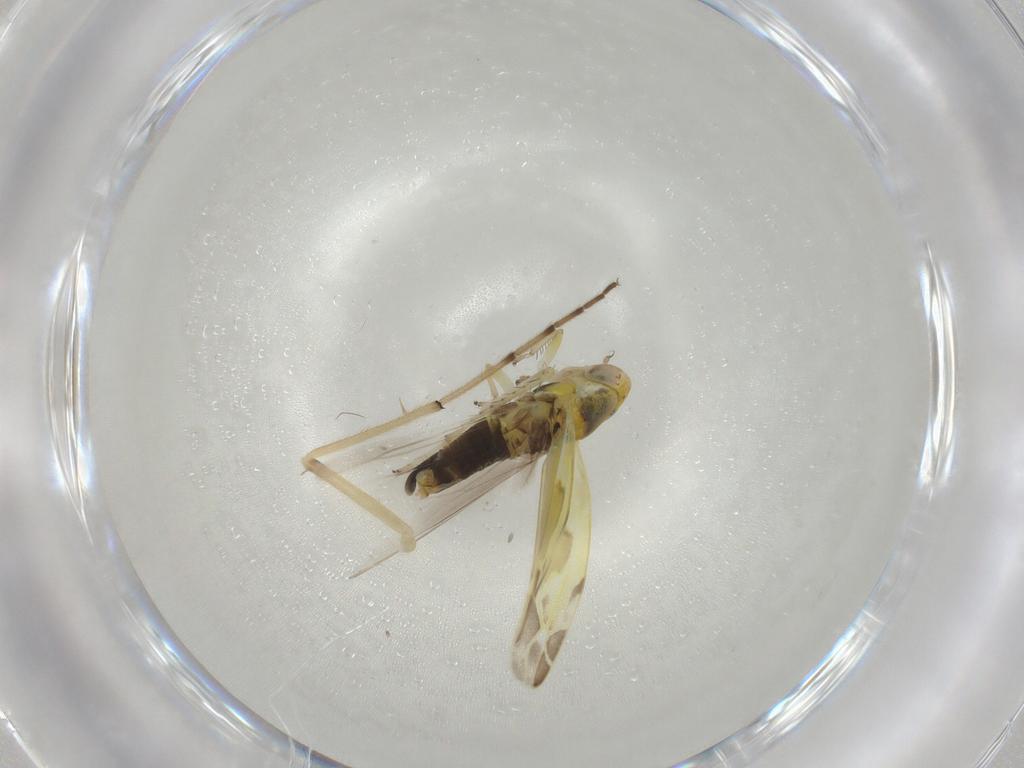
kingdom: Animalia
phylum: Arthropoda
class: Insecta
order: Hemiptera
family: Cicadellidae
